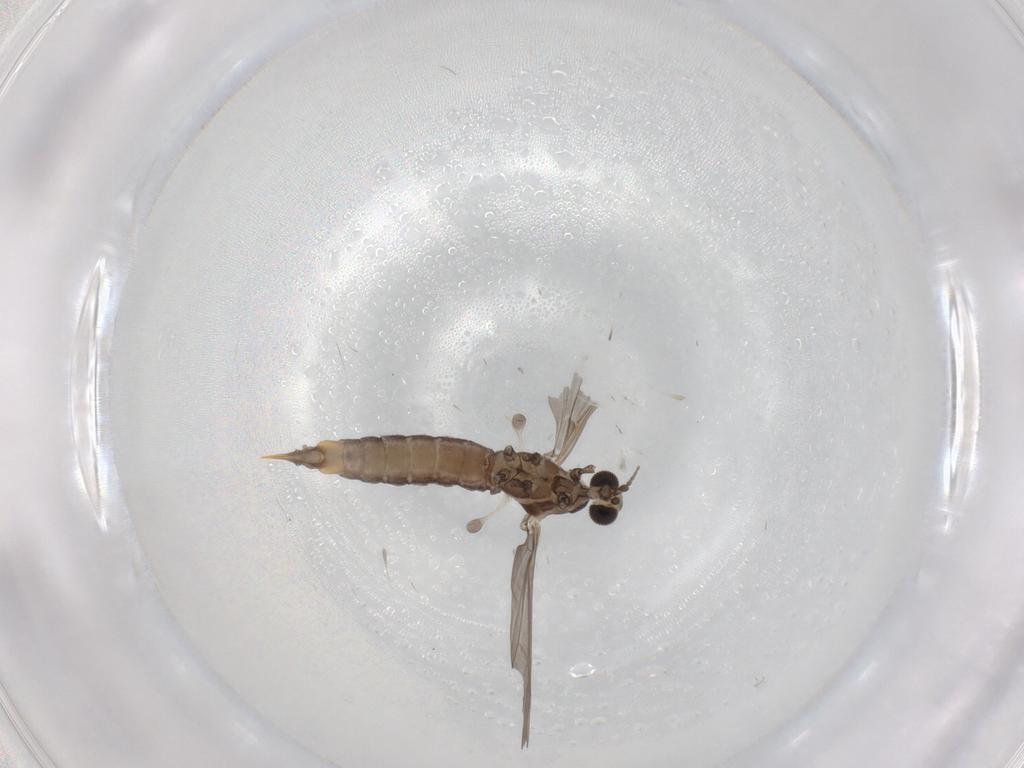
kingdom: Animalia
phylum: Arthropoda
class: Insecta
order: Diptera
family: Limoniidae
